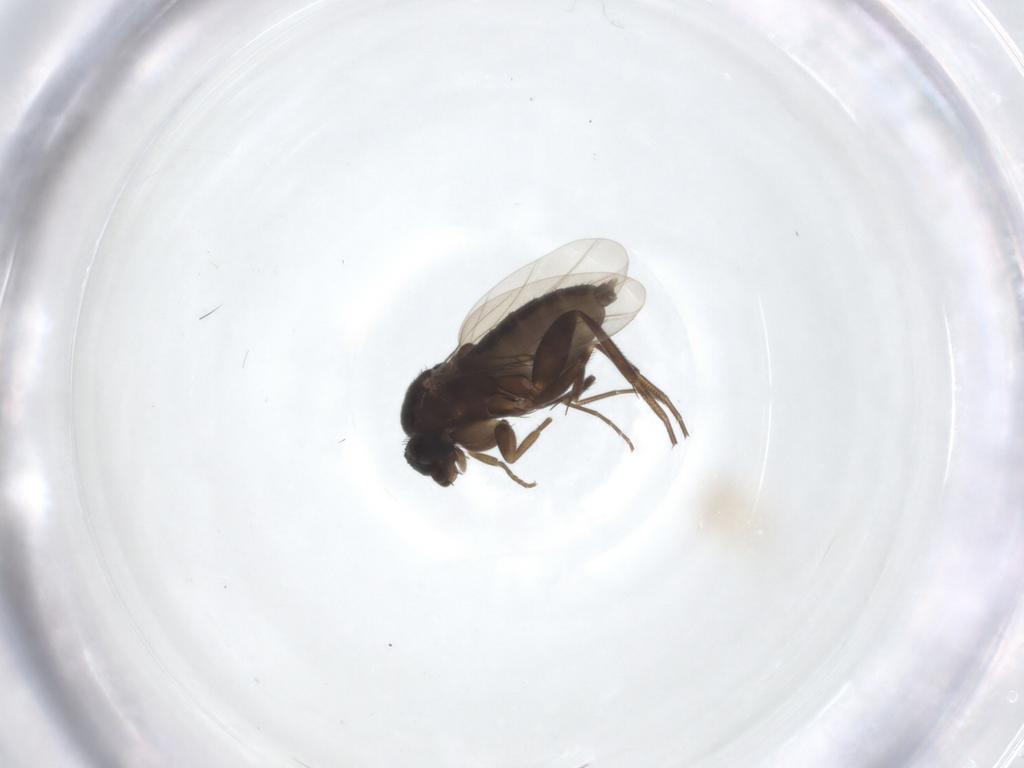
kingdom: Animalia
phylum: Arthropoda
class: Insecta
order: Diptera
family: Phoridae
